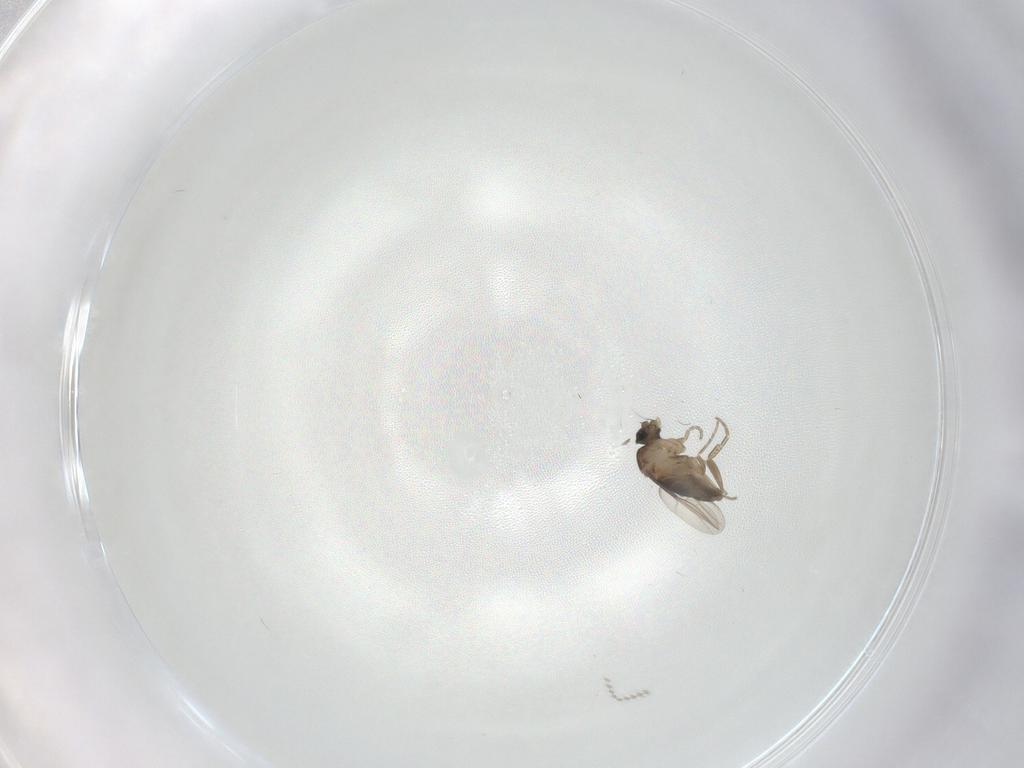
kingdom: Animalia
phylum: Arthropoda
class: Insecta
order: Diptera
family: Phoridae
